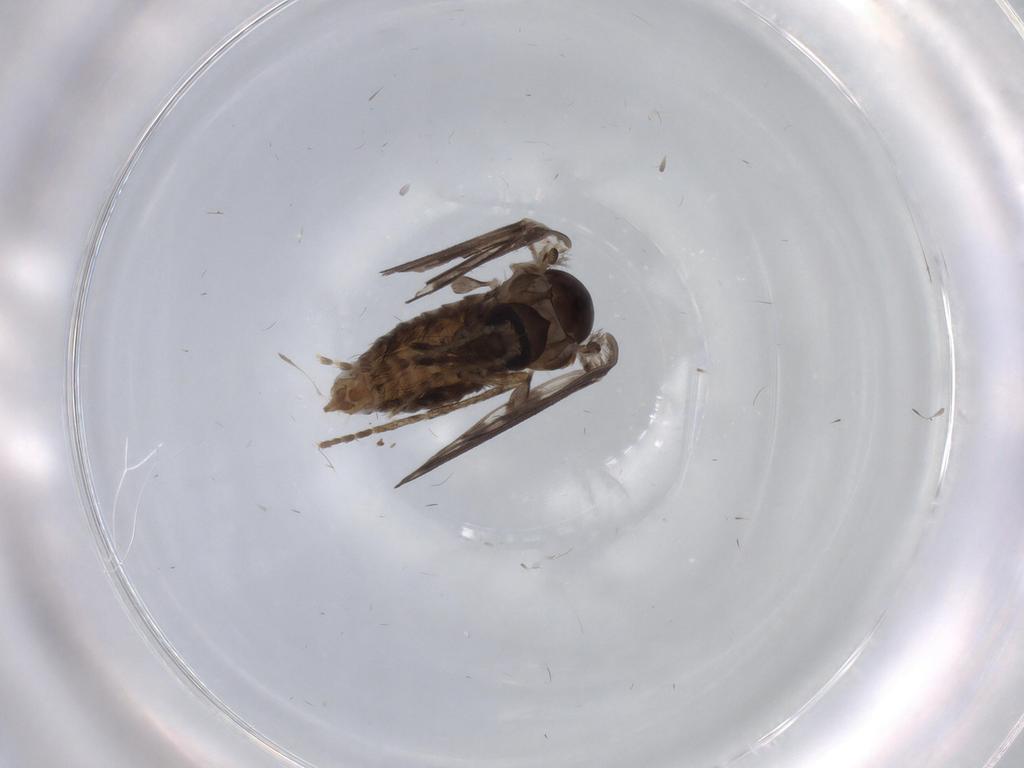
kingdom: Animalia
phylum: Arthropoda
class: Insecta
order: Diptera
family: Psychodidae
